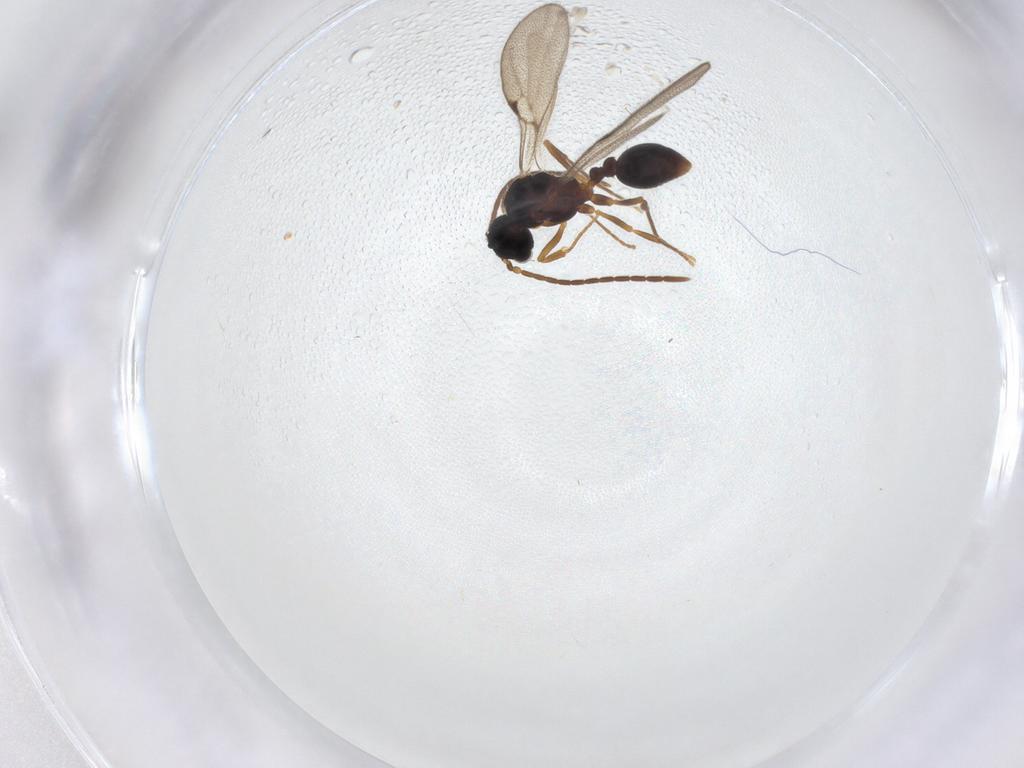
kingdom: Animalia
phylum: Arthropoda
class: Insecta
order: Hymenoptera
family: Formicidae
